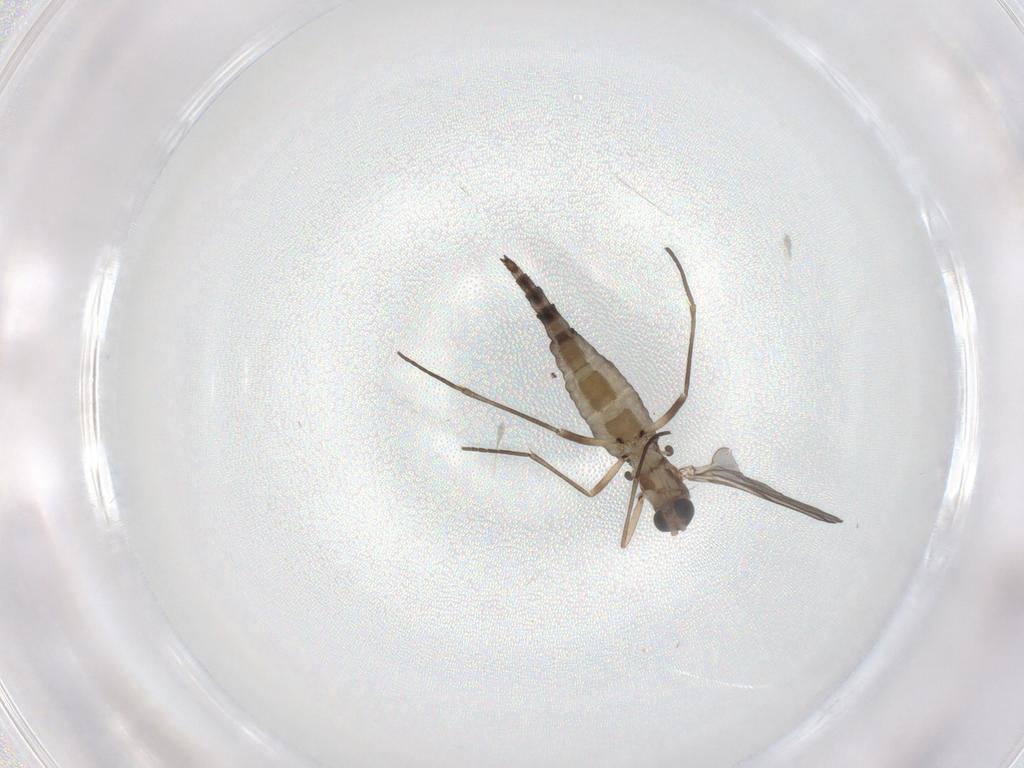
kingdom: Animalia
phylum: Arthropoda
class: Insecta
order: Diptera
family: Sciaridae
